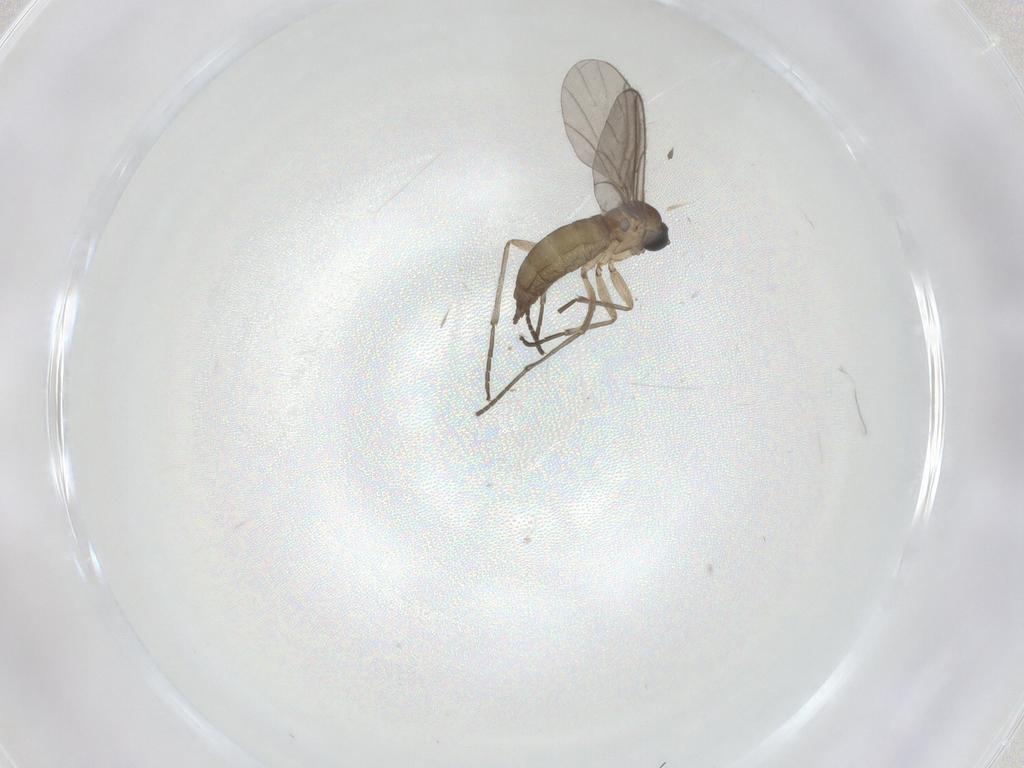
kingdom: Animalia
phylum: Arthropoda
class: Insecta
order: Diptera
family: Sciaridae
